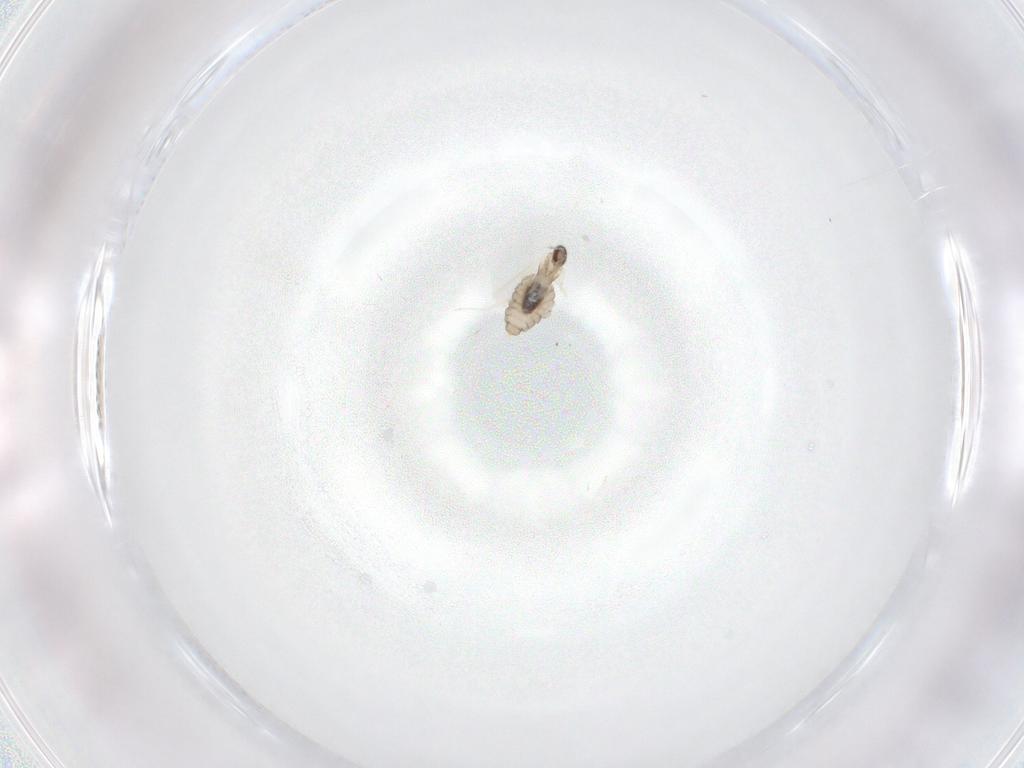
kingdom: Animalia
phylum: Arthropoda
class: Insecta
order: Diptera
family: Cecidomyiidae
